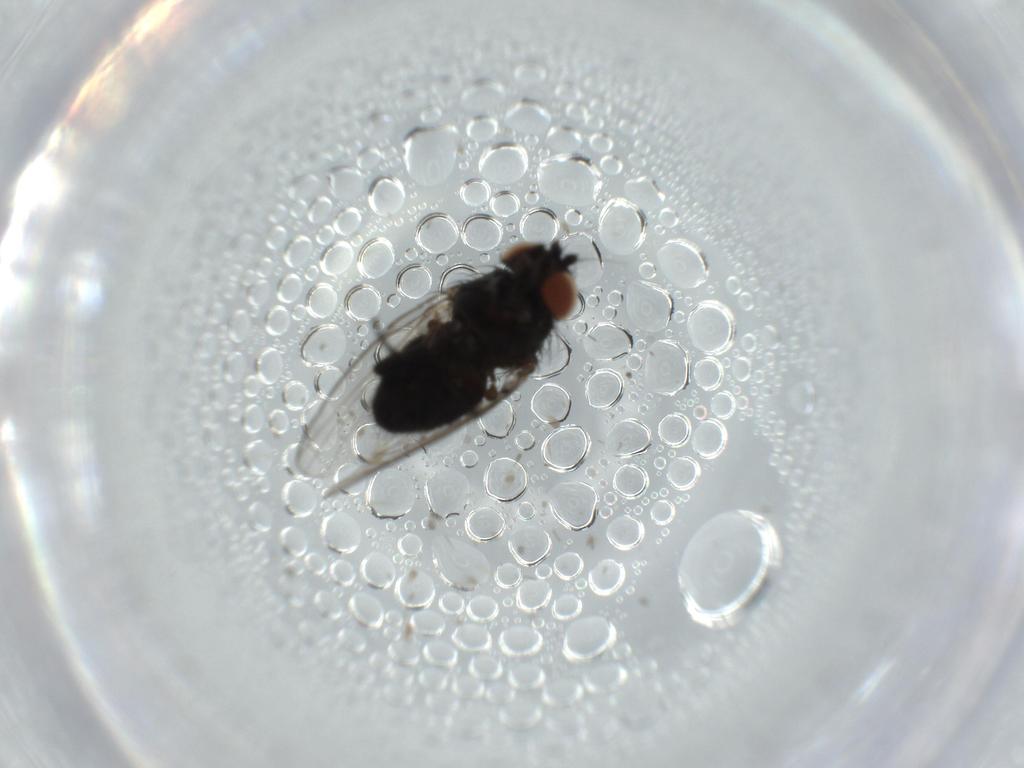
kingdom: Animalia
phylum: Arthropoda
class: Insecta
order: Diptera
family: Milichiidae
